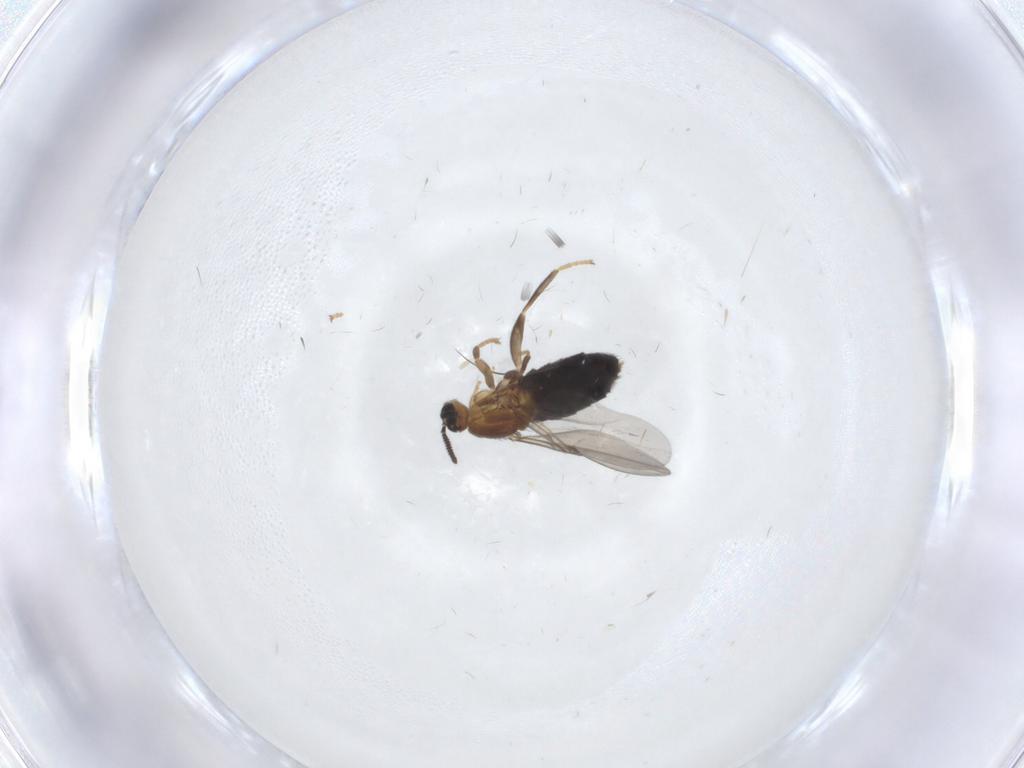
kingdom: Animalia
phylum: Arthropoda
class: Insecta
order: Diptera
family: Scatopsidae
